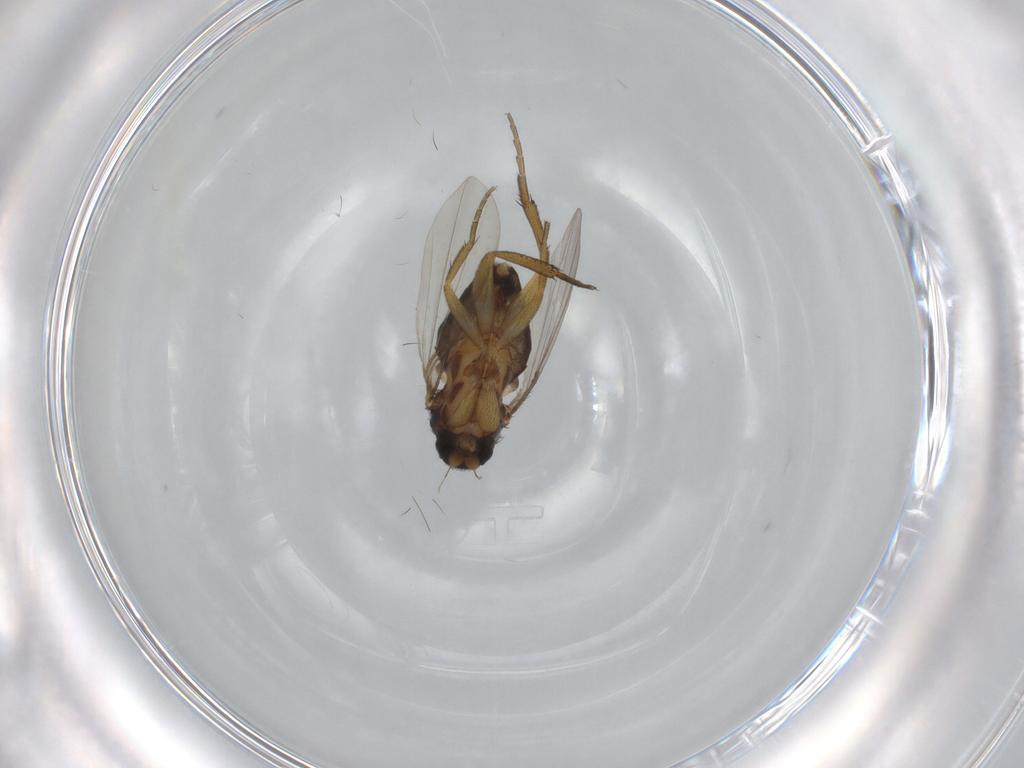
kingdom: Animalia
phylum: Arthropoda
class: Insecta
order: Diptera
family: Phoridae
